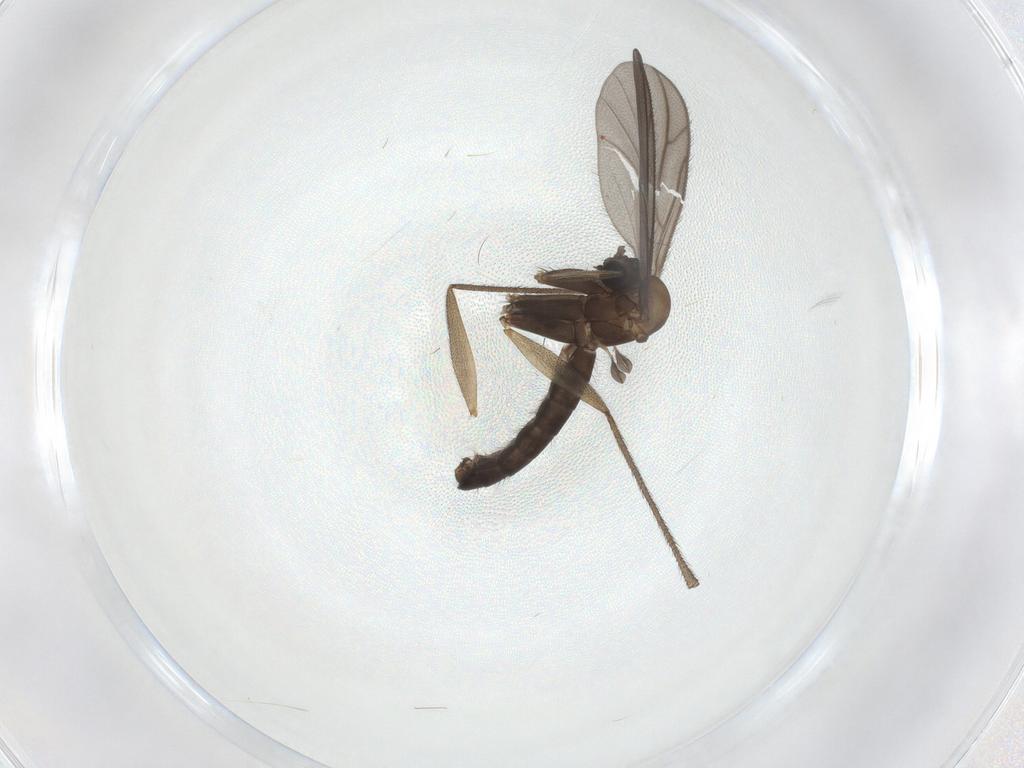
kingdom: Animalia
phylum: Arthropoda
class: Insecta
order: Diptera
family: Ditomyiidae
